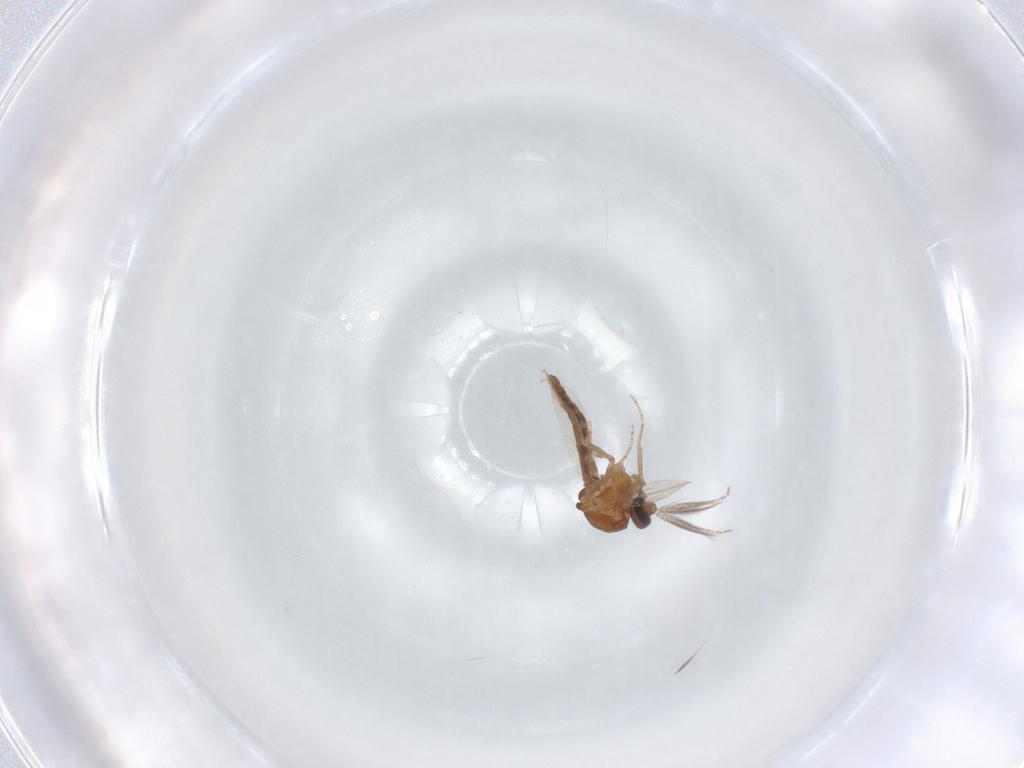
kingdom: Animalia
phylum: Arthropoda
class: Insecta
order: Diptera
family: Ceratopogonidae
